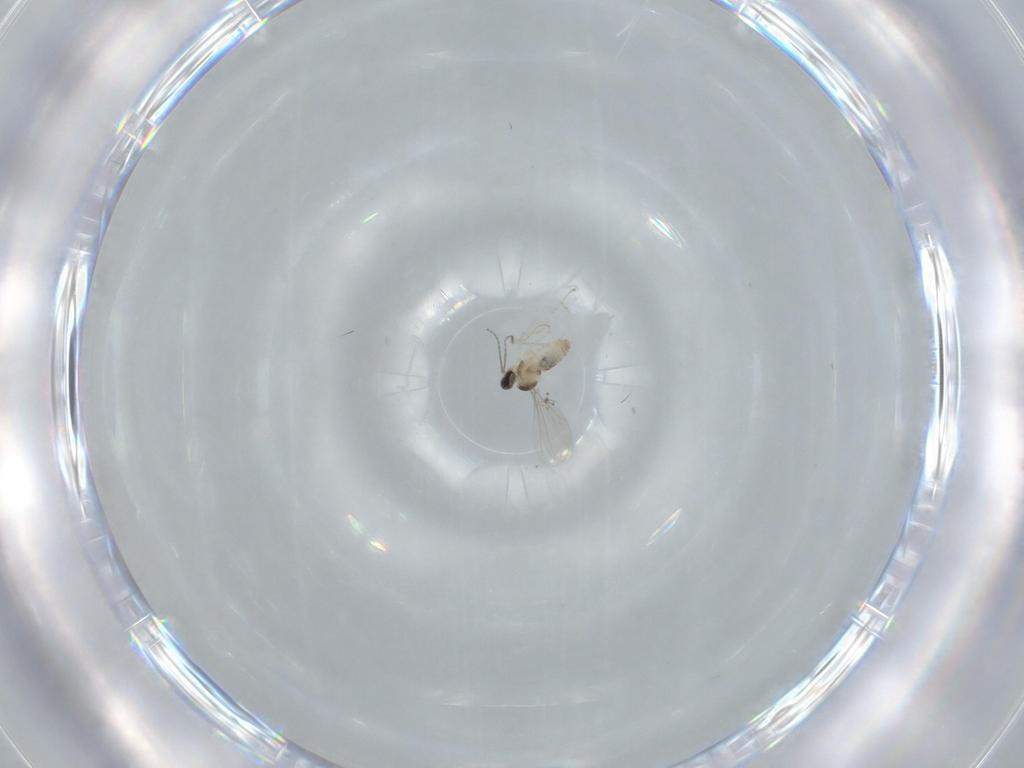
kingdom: Animalia
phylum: Arthropoda
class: Insecta
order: Diptera
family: Cecidomyiidae
